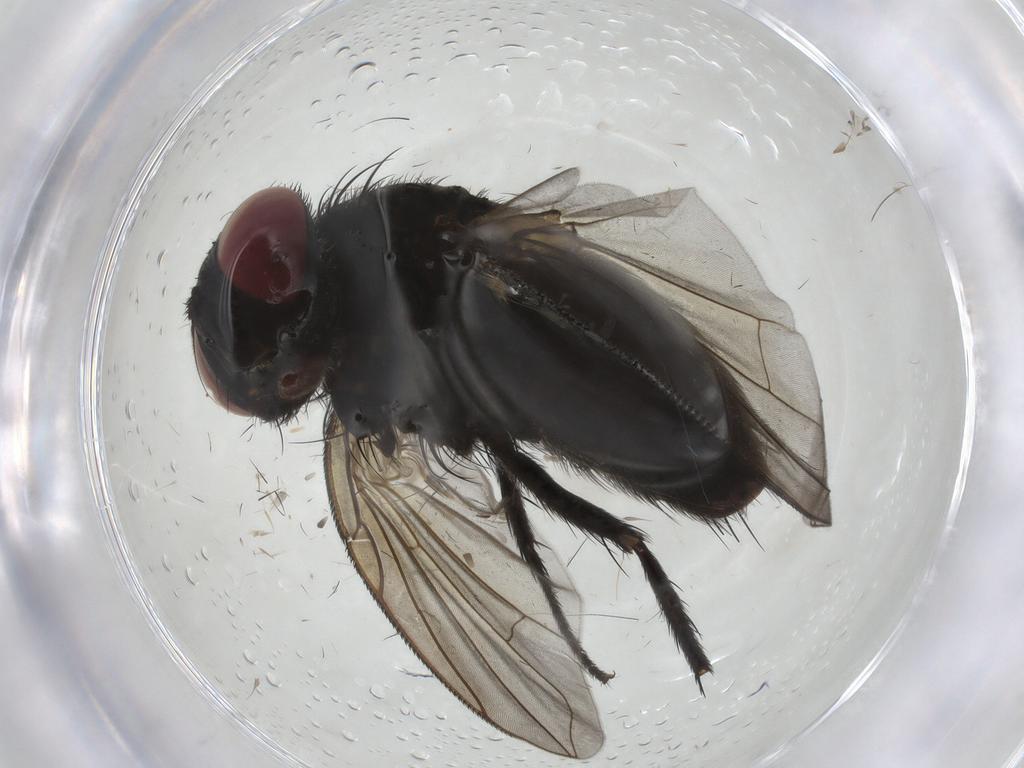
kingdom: Animalia
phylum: Arthropoda
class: Insecta
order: Diptera
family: Tachinidae
